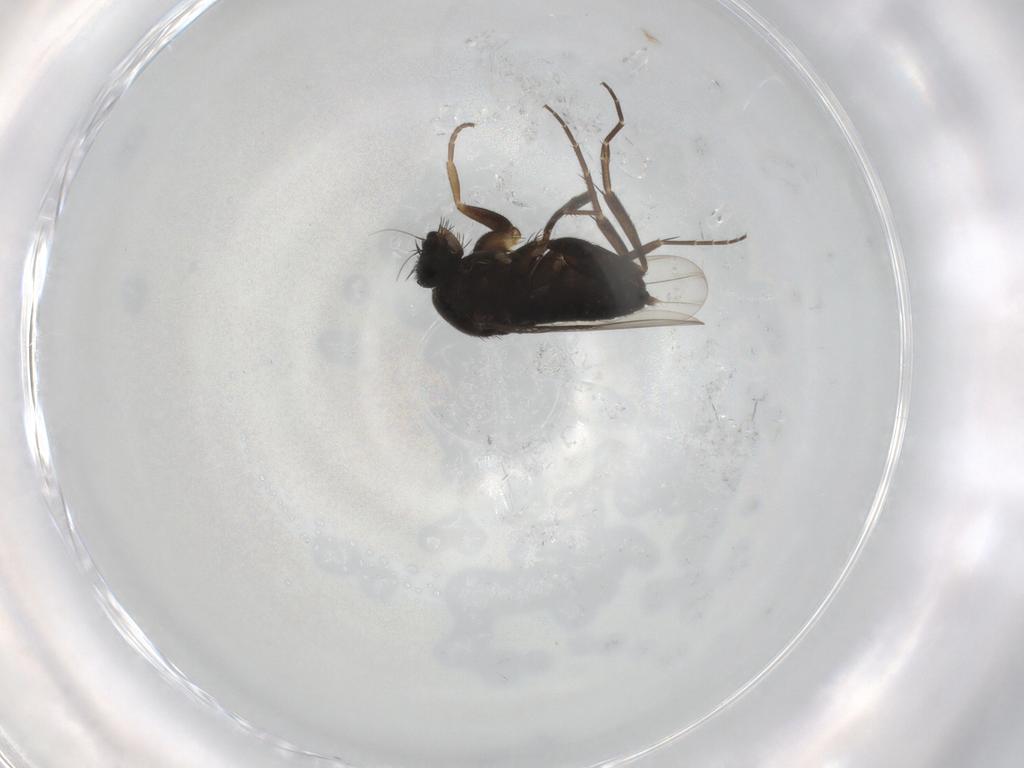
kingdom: Animalia
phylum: Arthropoda
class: Insecta
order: Diptera
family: Phoridae
